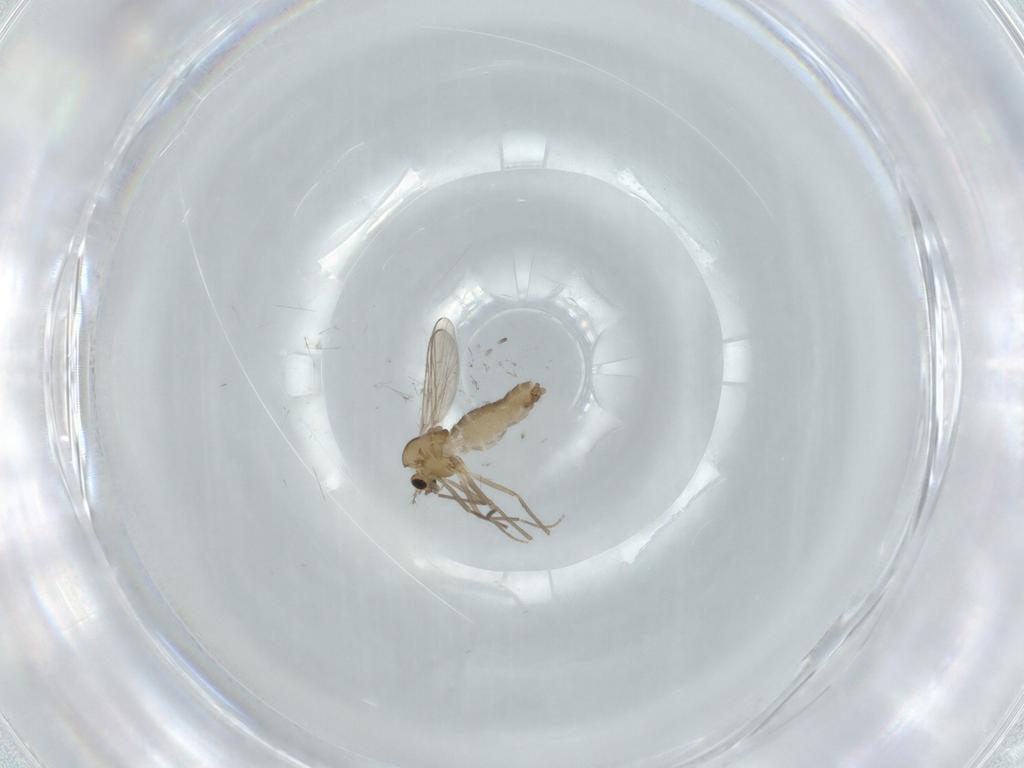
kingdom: Animalia
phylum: Arthropoda
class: Insecta
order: Diptera
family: Chironomidae
